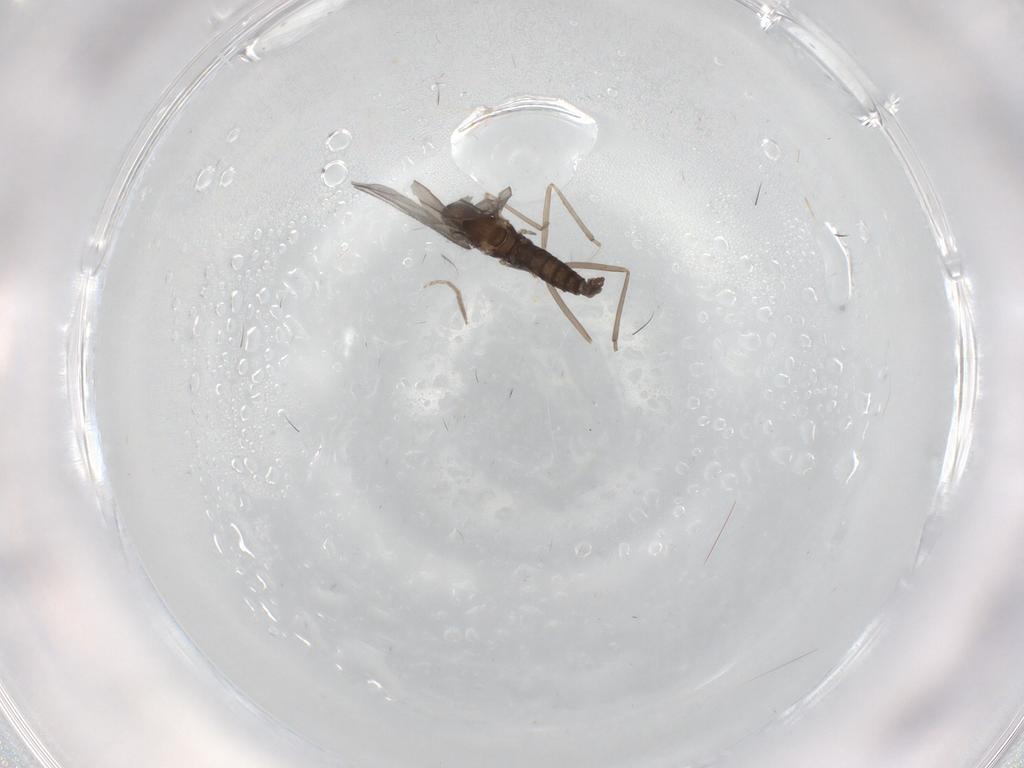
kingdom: Animalia
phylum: Arthropoda
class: Insecta
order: Diptera
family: Cecidomyiidae
